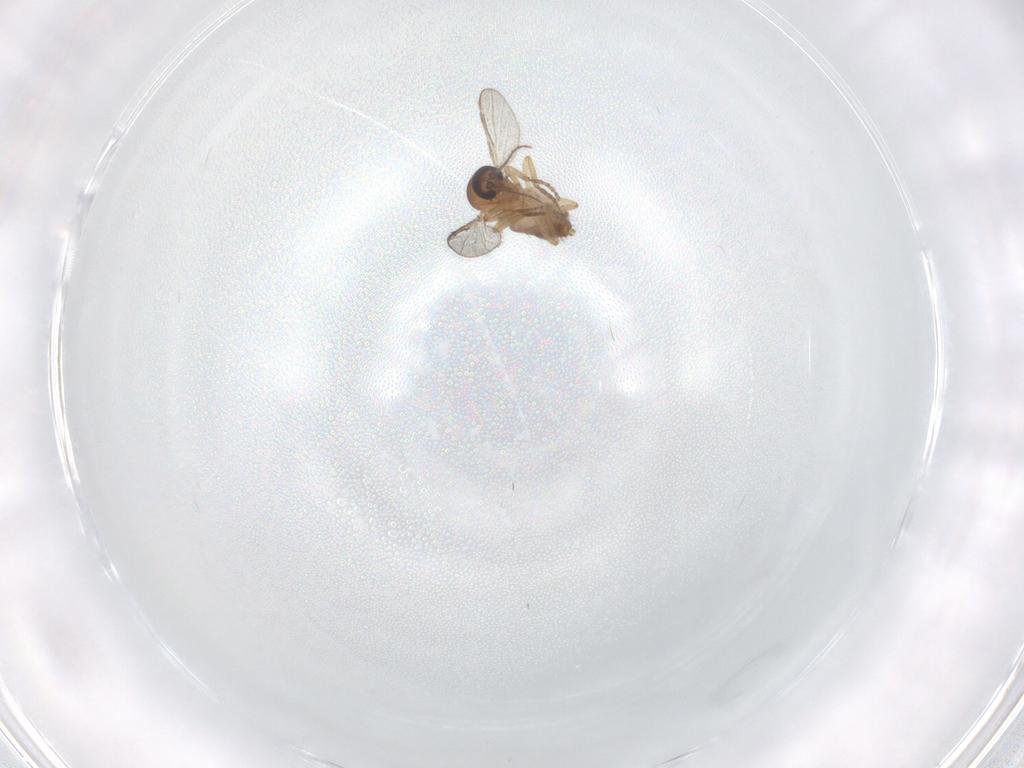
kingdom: Animalia
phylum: Arthropoda
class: Insecta
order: Diptera
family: Ceratopogonidae
